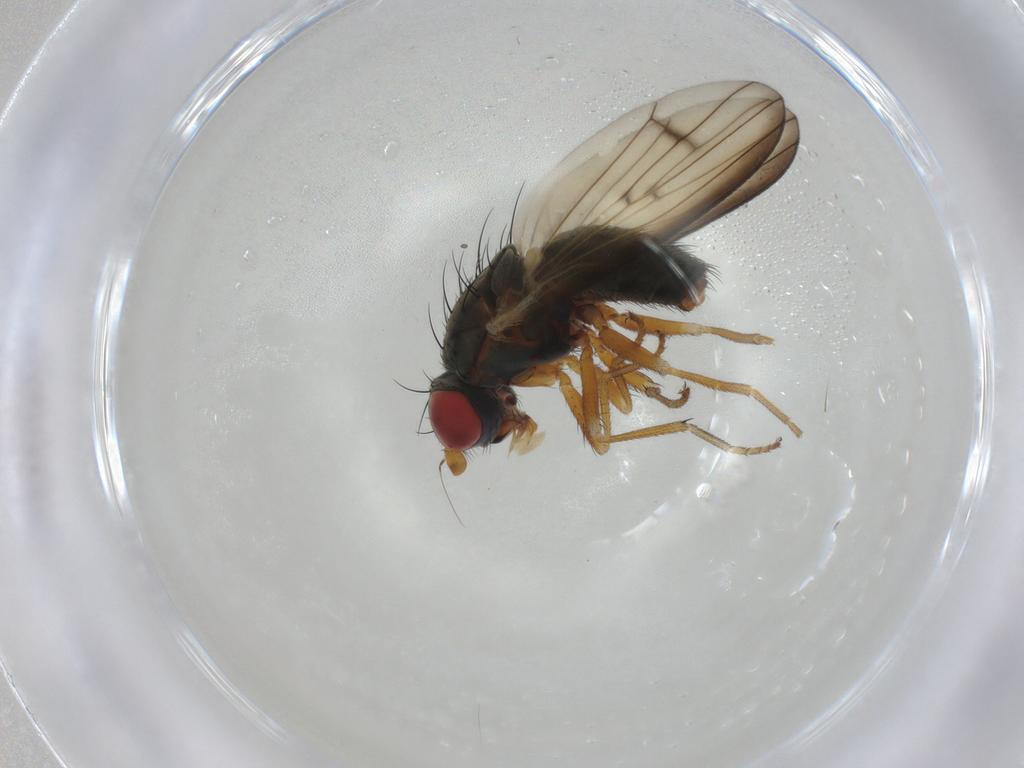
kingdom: Animalia
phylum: Arthropoda
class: Insecta
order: Diptera
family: Chamaemyiidae
